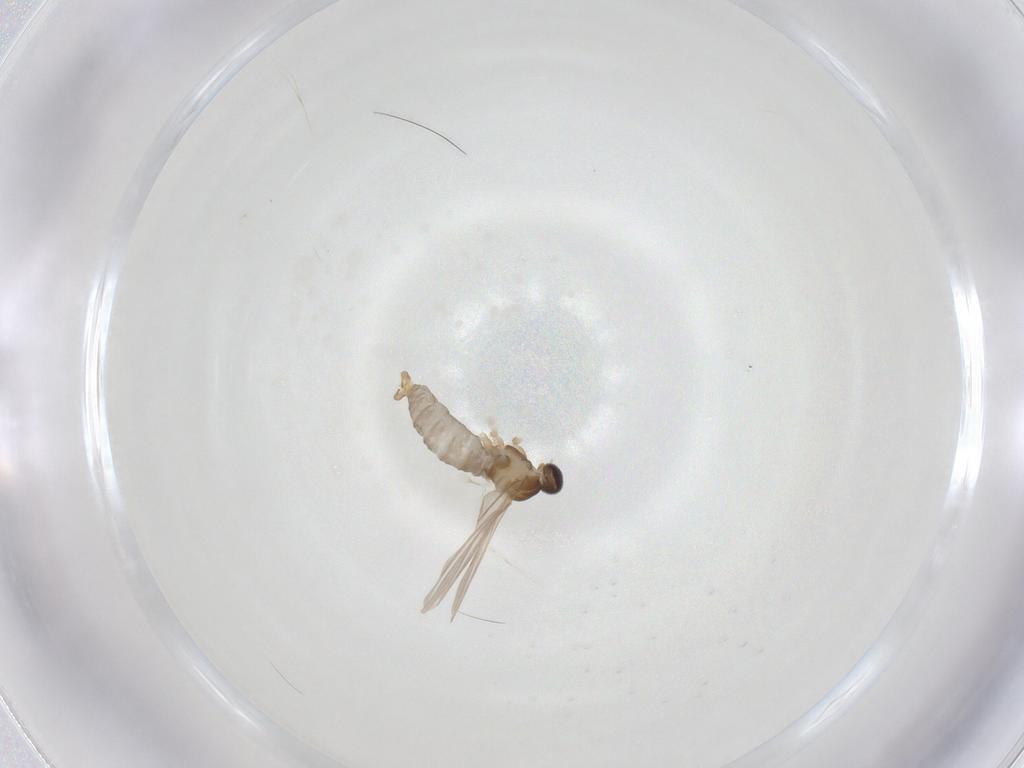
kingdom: Animalia
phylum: Arthropoda
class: Insecta
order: Diptera
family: Cecidomyiidae
